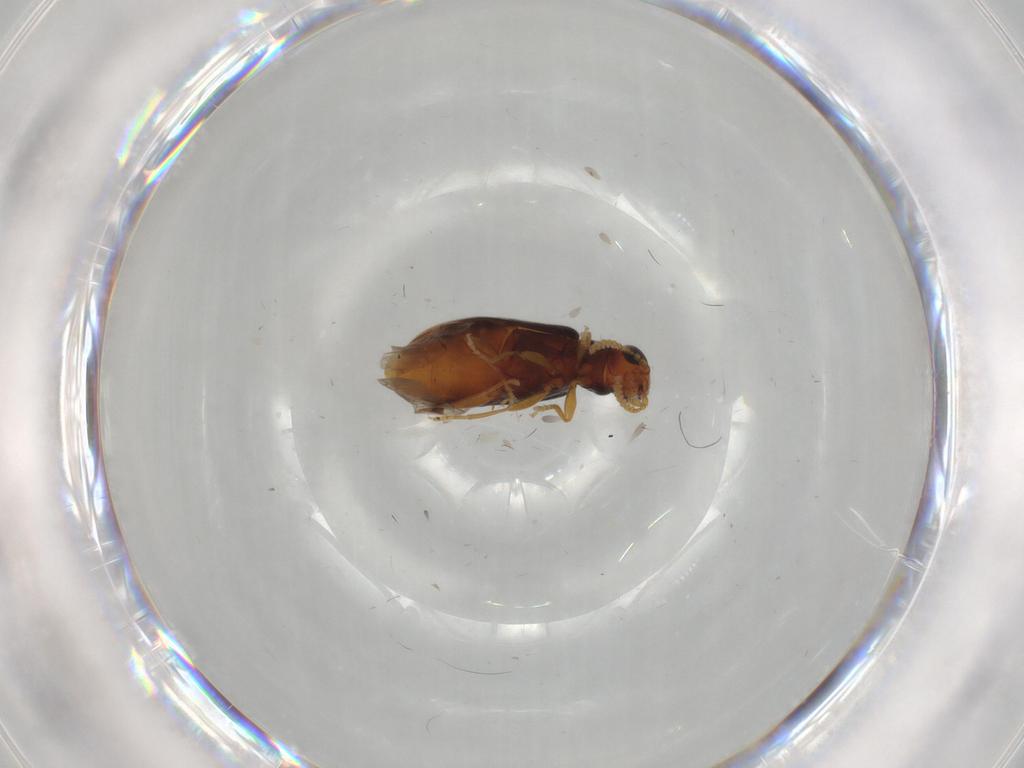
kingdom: Animalia
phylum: Arthropoda
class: Insecta
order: Coleoptera
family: Mycteridae
